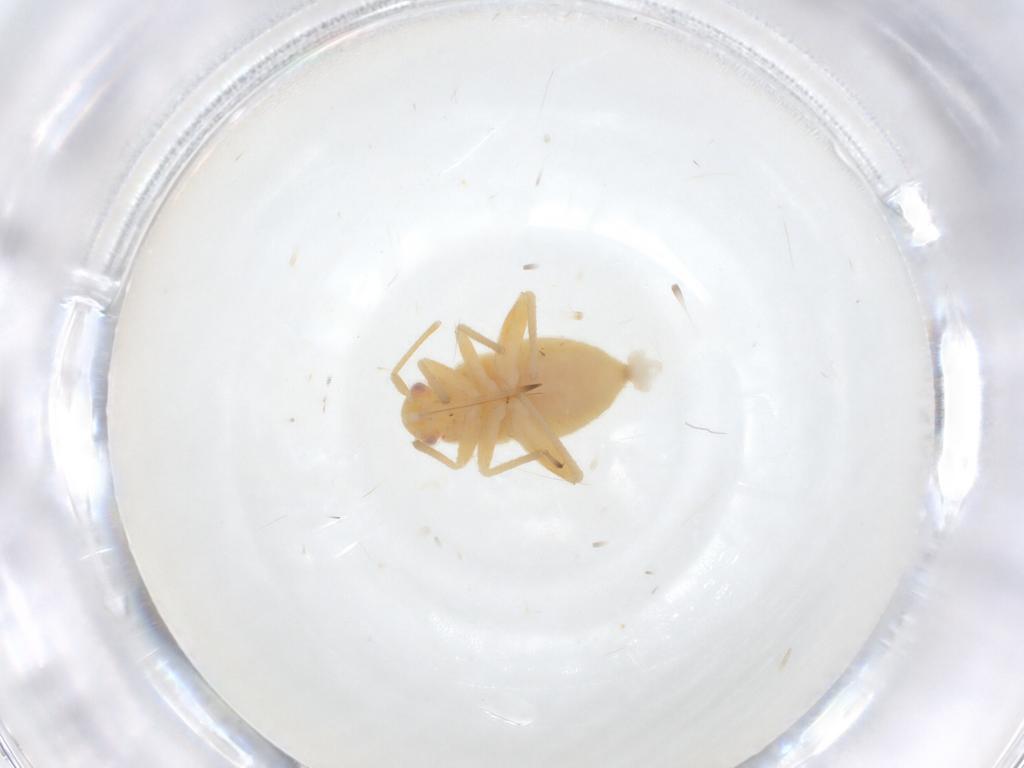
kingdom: Animalia
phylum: Arthropoda
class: Insecta
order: Hemiptera
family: Miridae
